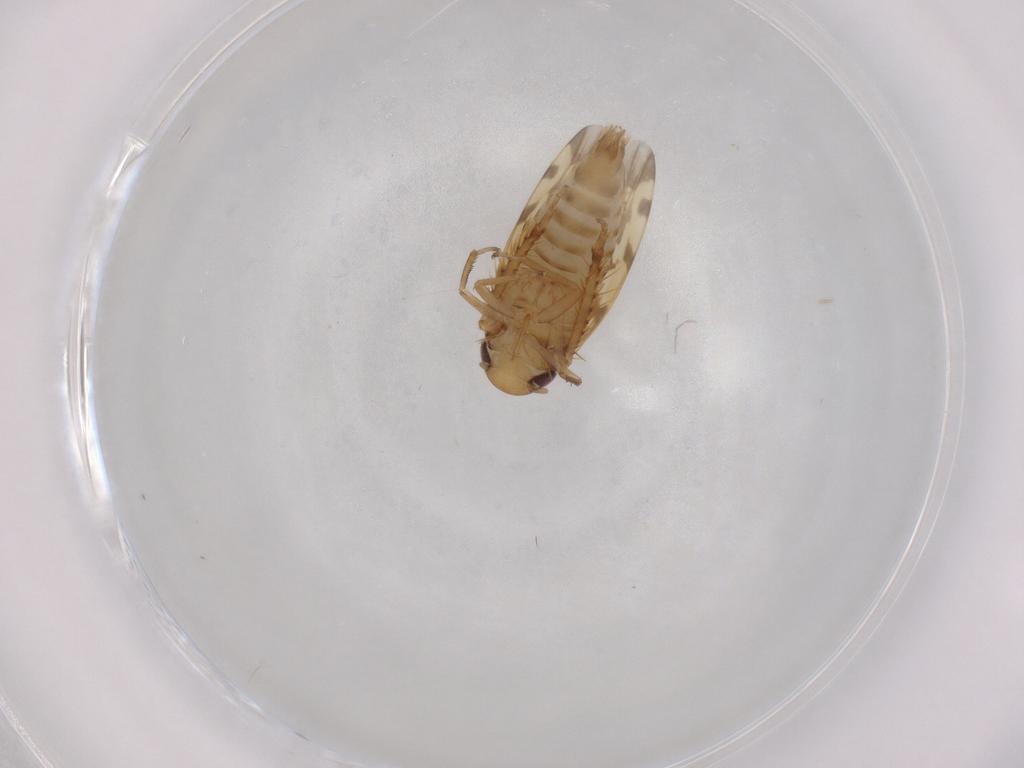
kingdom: Animalia
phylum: Arthropoda
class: Insecta
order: Hemiptera
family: Cicadellidae
